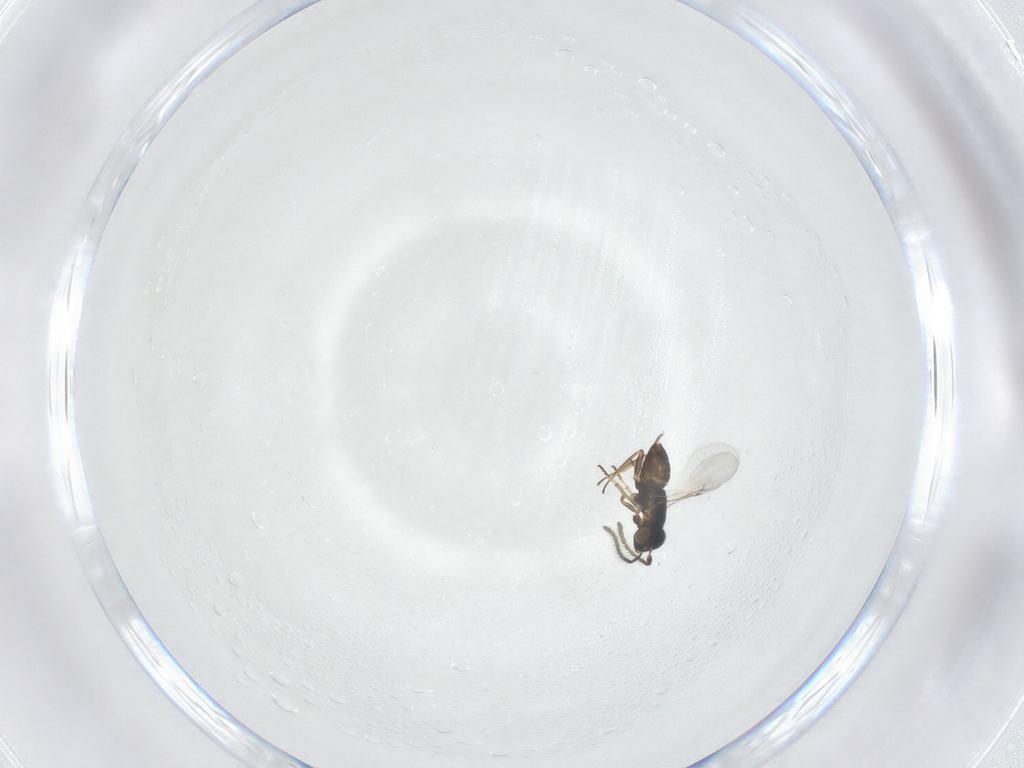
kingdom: Animalia
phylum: Arthropoda
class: Insecta
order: Hymenoptera
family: Encyrtidae
